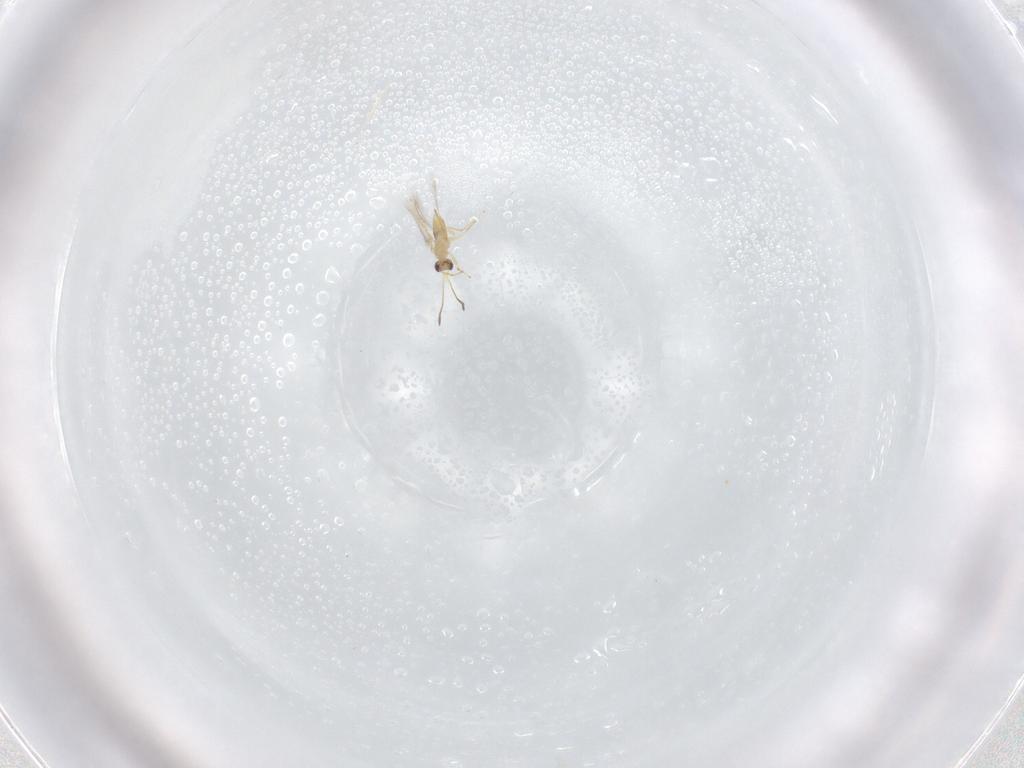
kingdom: Animalia
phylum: Arthropoda
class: Insecta
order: Hymenoptera
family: Mymaridae
